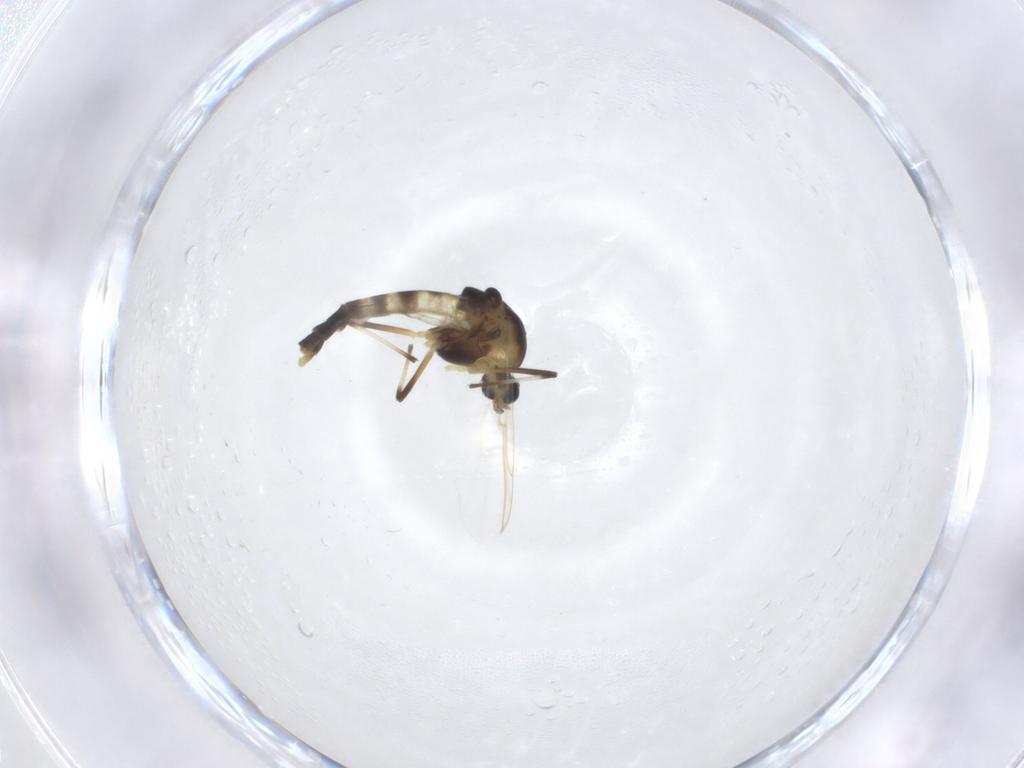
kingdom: Animalia
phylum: Arthropoda
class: Insecta
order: Diptera
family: Chironomidae
